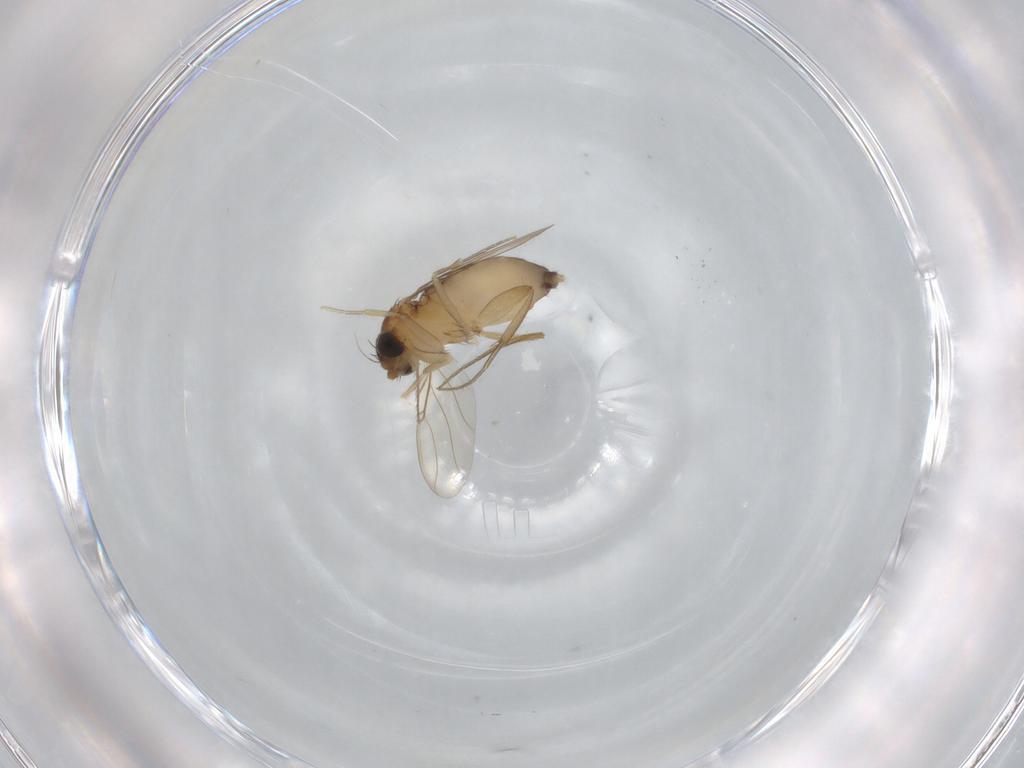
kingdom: Animalia
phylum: Arthropoda
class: Insecta
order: Diptera
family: Phoridae
